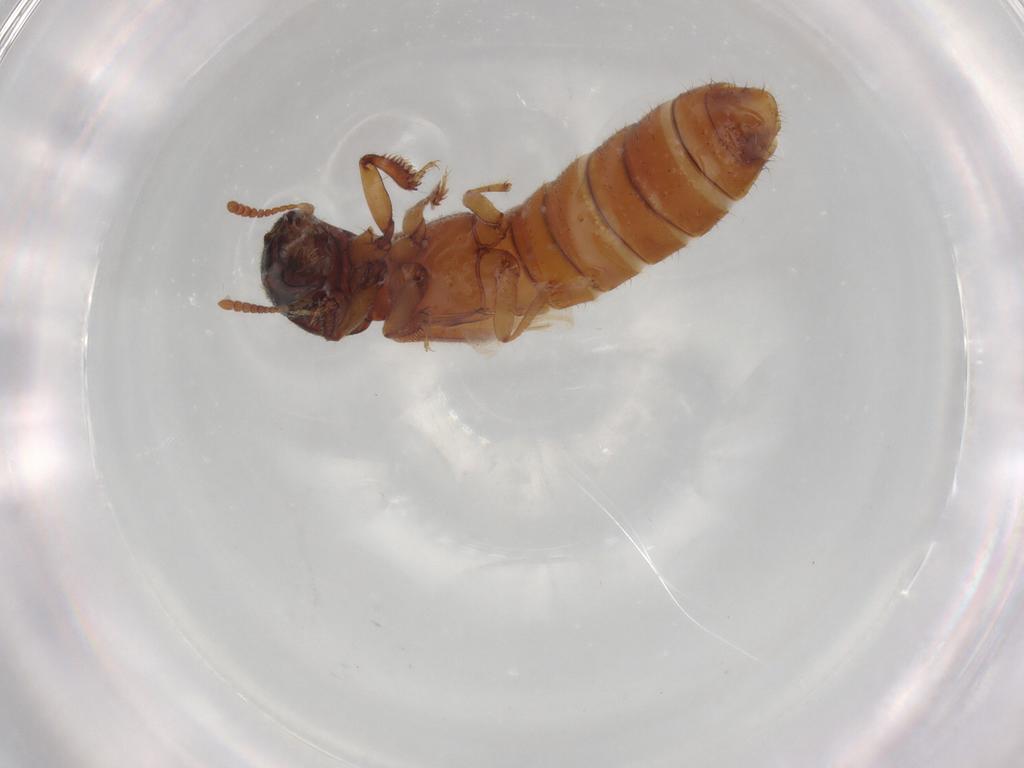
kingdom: Animalia
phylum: Arthropoda
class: Insecta
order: Coleoptera
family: Staphylinidae
